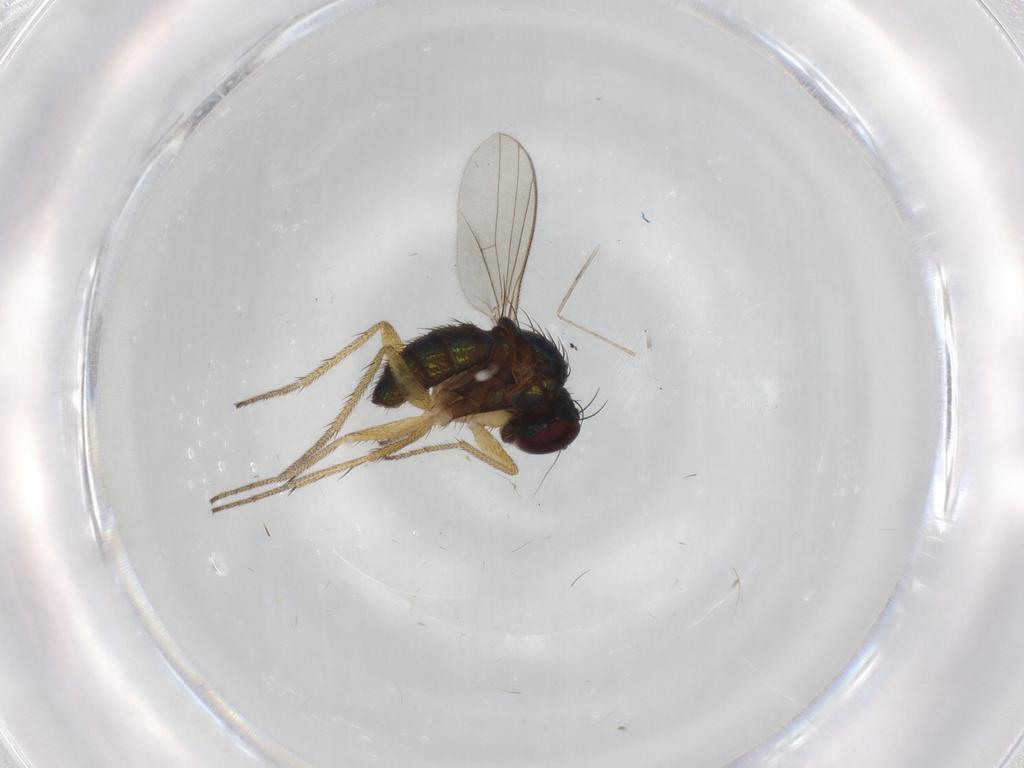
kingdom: Animalia
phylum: Arthropoda
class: Insecta
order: Diptera
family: Dolichopodidae
